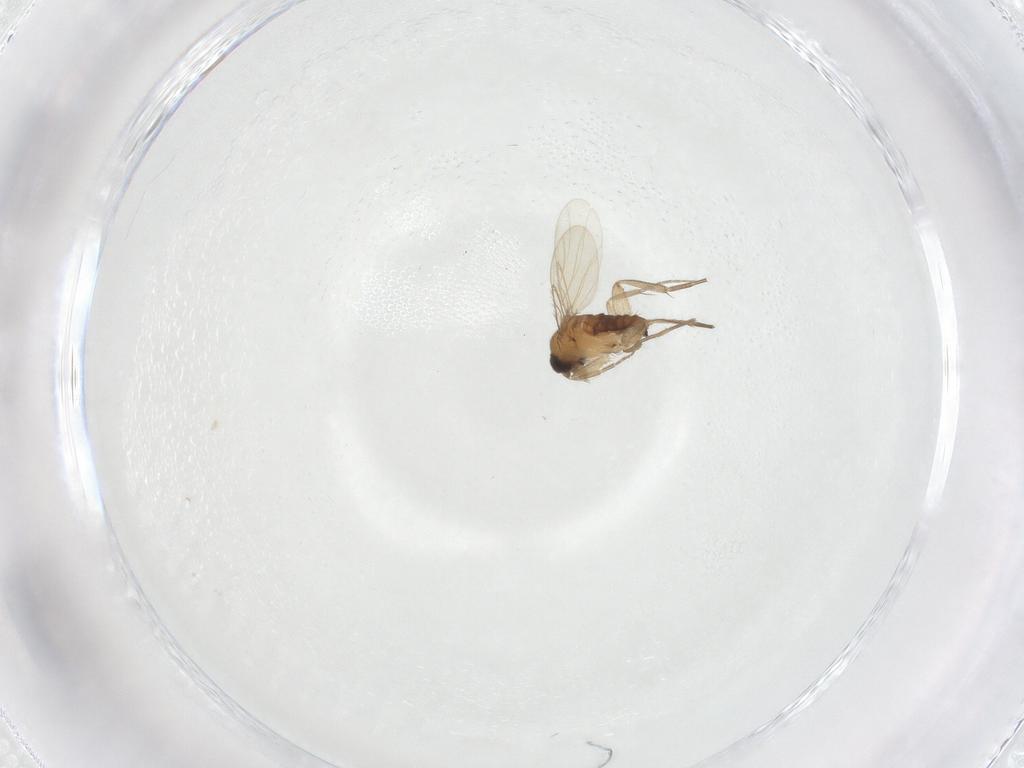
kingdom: Animalia
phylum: Arthropoda
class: Insecta
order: Diptera
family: Phoridae
